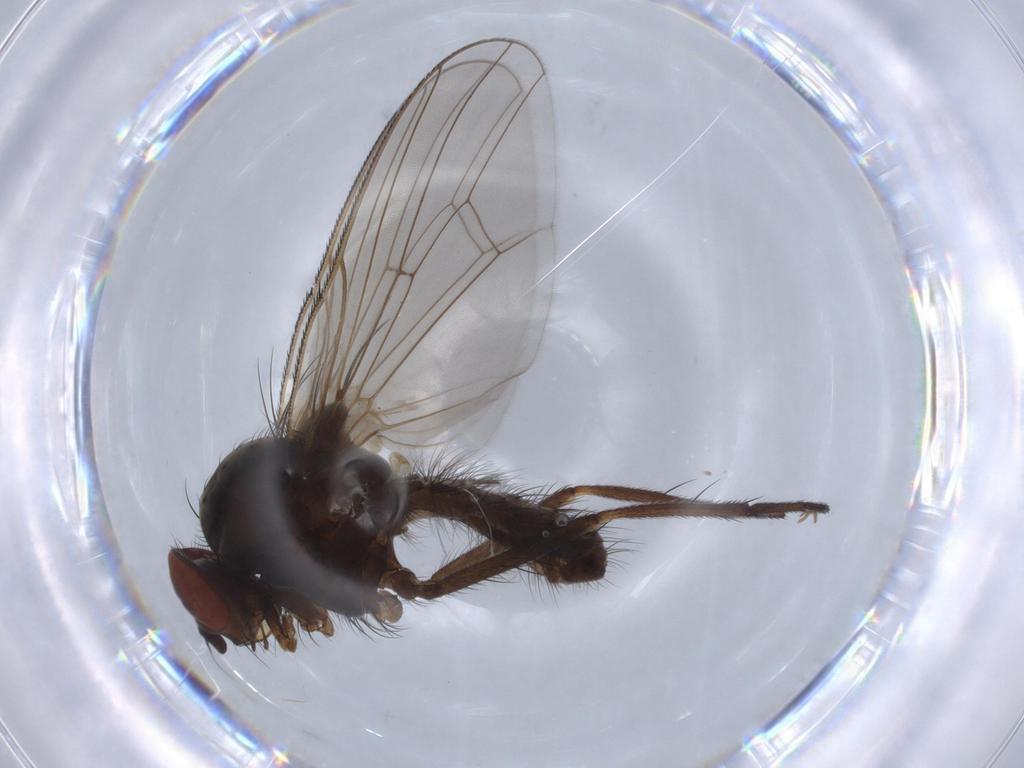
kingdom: Animalia
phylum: Arthropoda
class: Insecta
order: Diptera
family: Anthomyiidae
